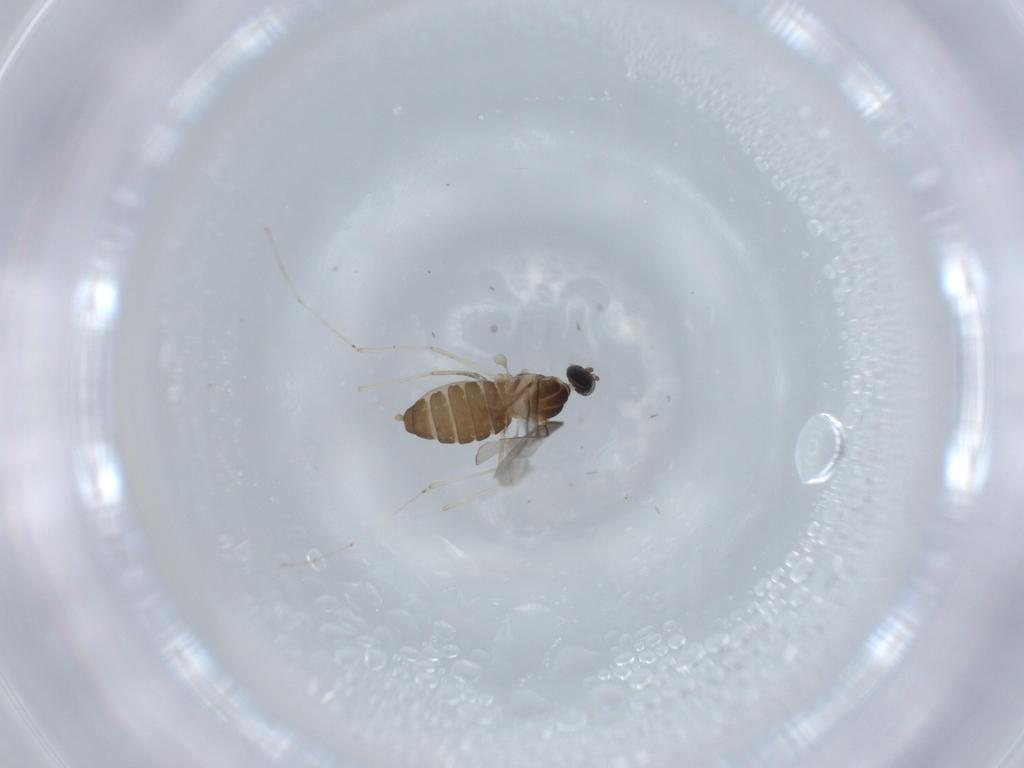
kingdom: Animalia
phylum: Arthropoda
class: Insecta
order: Diptera
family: Cecidomyiidae
